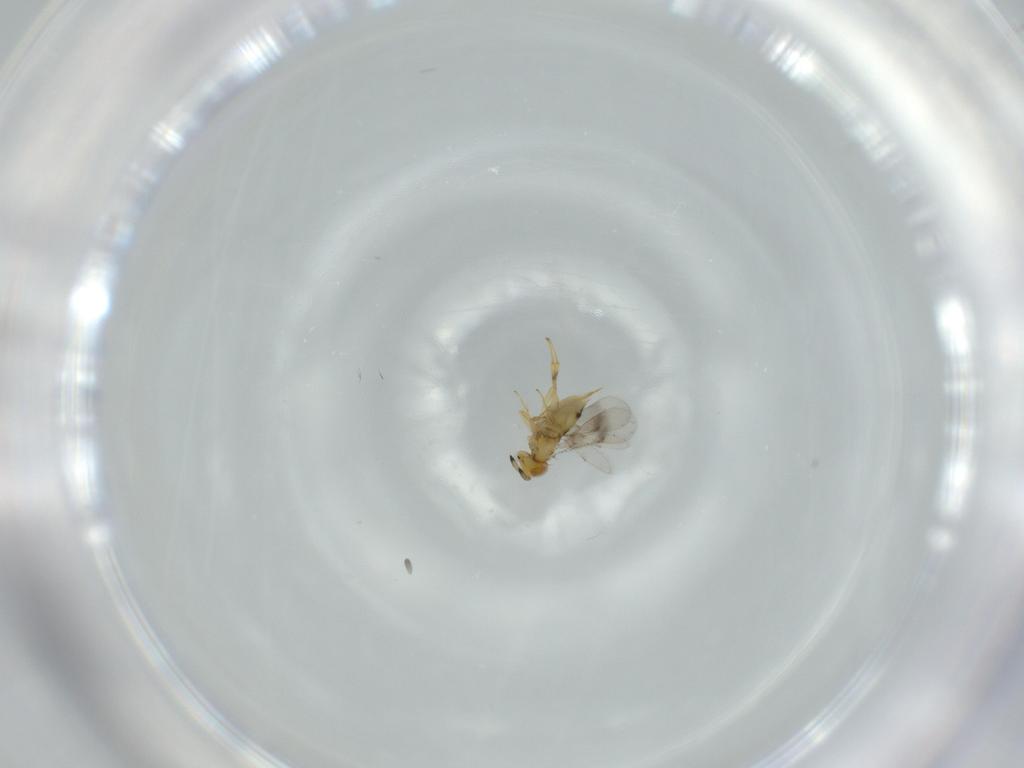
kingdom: Animalia
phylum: Arthropoda
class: Insecta
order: Hymenoptera
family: Aphelinidae
